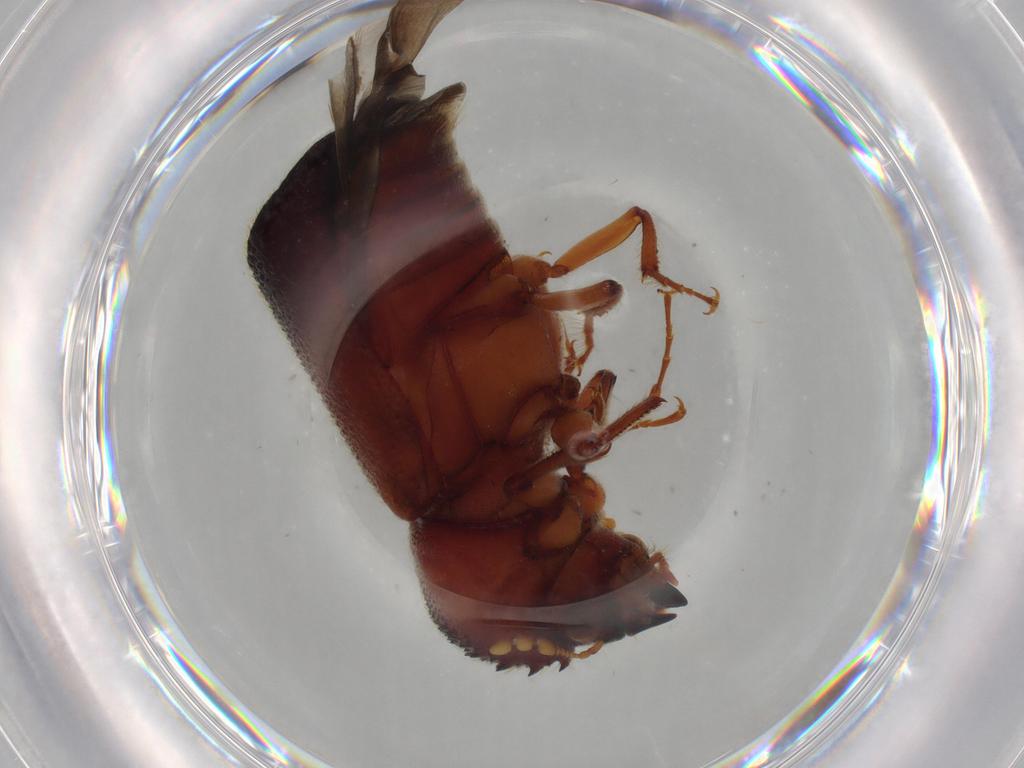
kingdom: Animalia
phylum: Arthropoda
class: Insecta
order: Coleoptera
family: Bostrichidae
